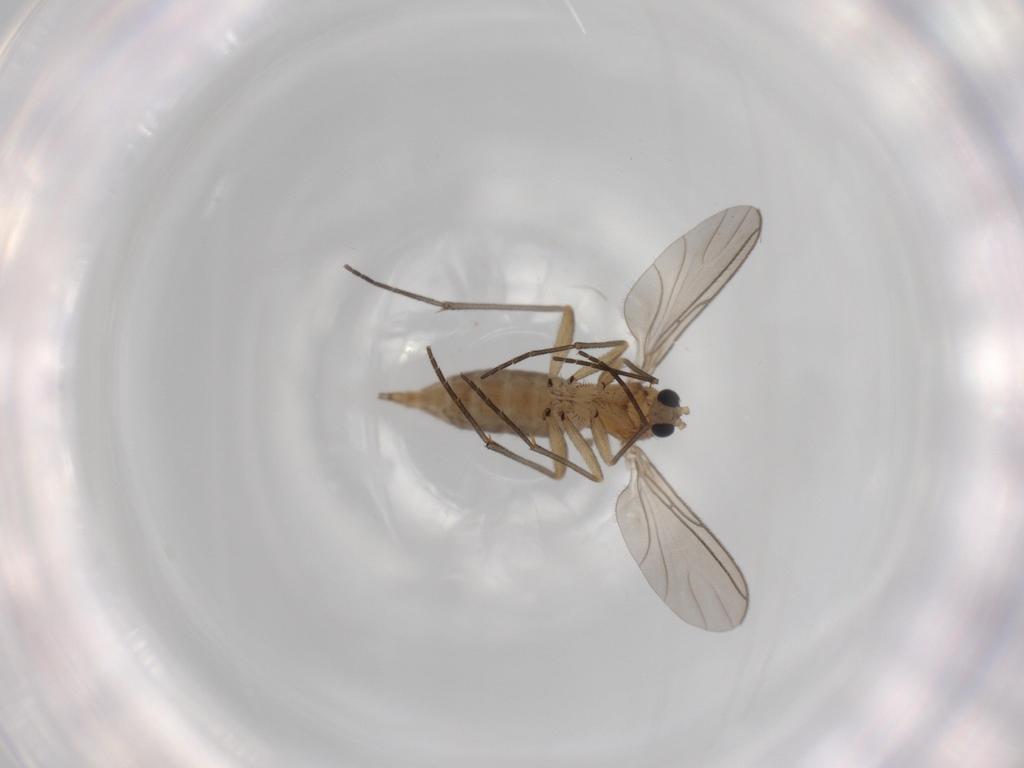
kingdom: Animalia
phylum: Arthropoda
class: Insecta
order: Diptera
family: Sciaridae
